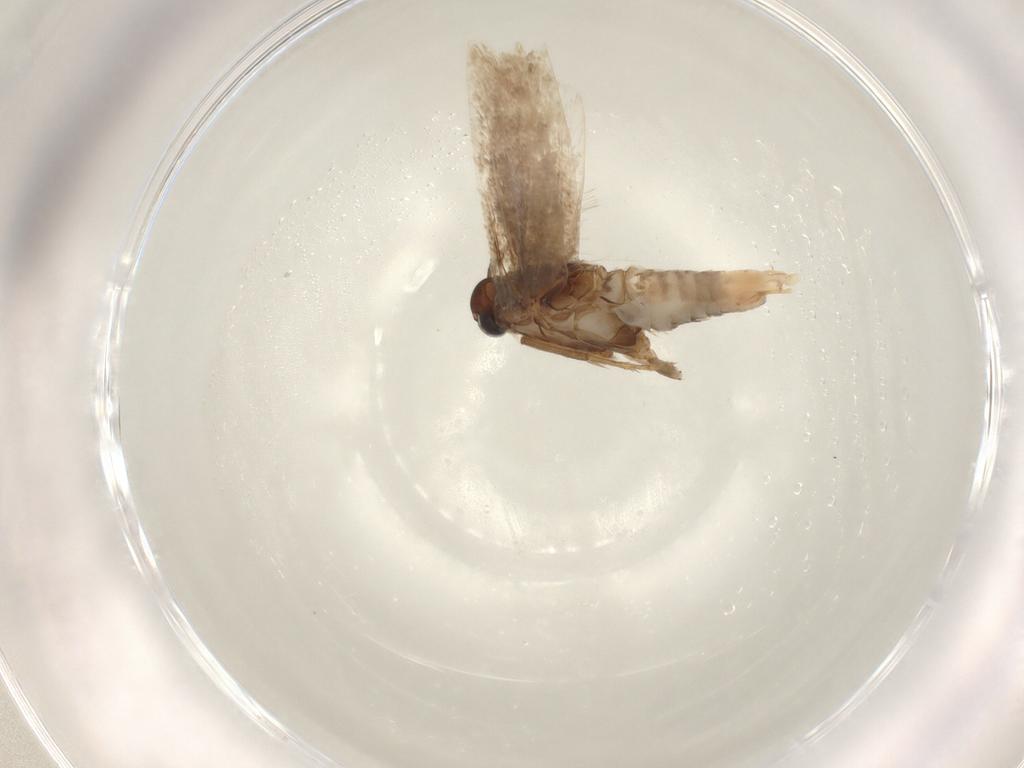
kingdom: Animalia
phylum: Arthropoda
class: Insecta
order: Lepidoptera
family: Gelechiidae
